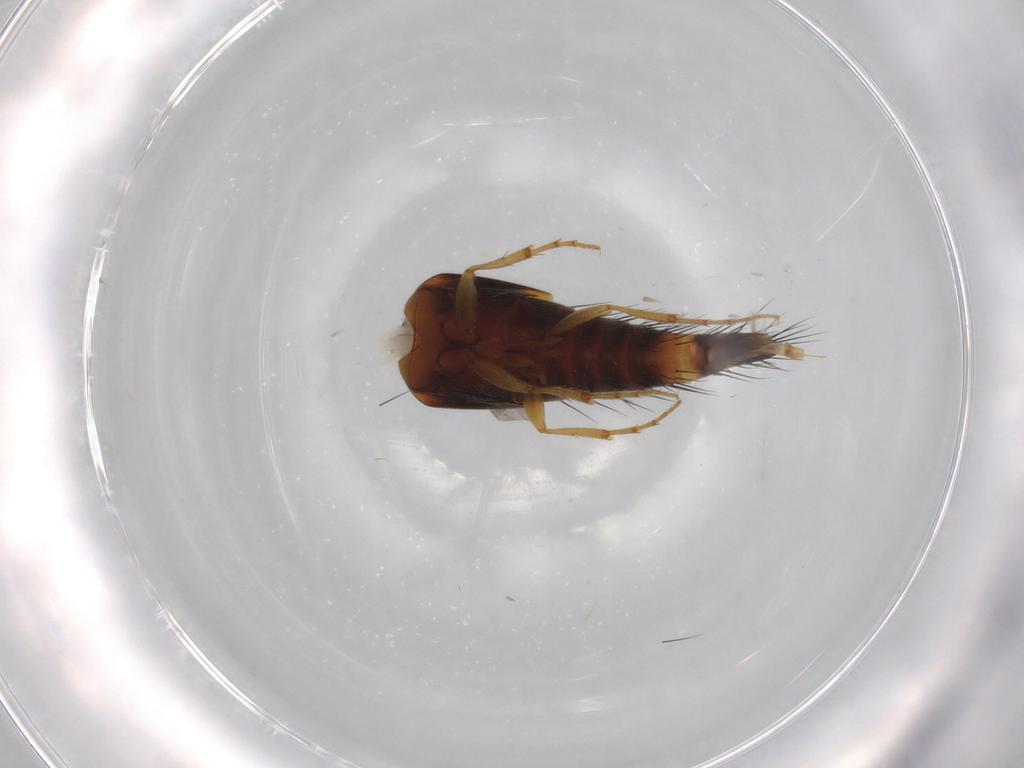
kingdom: Animalia
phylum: Arthropoda
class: Insecta
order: Coleoptera
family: Staphylinidae
